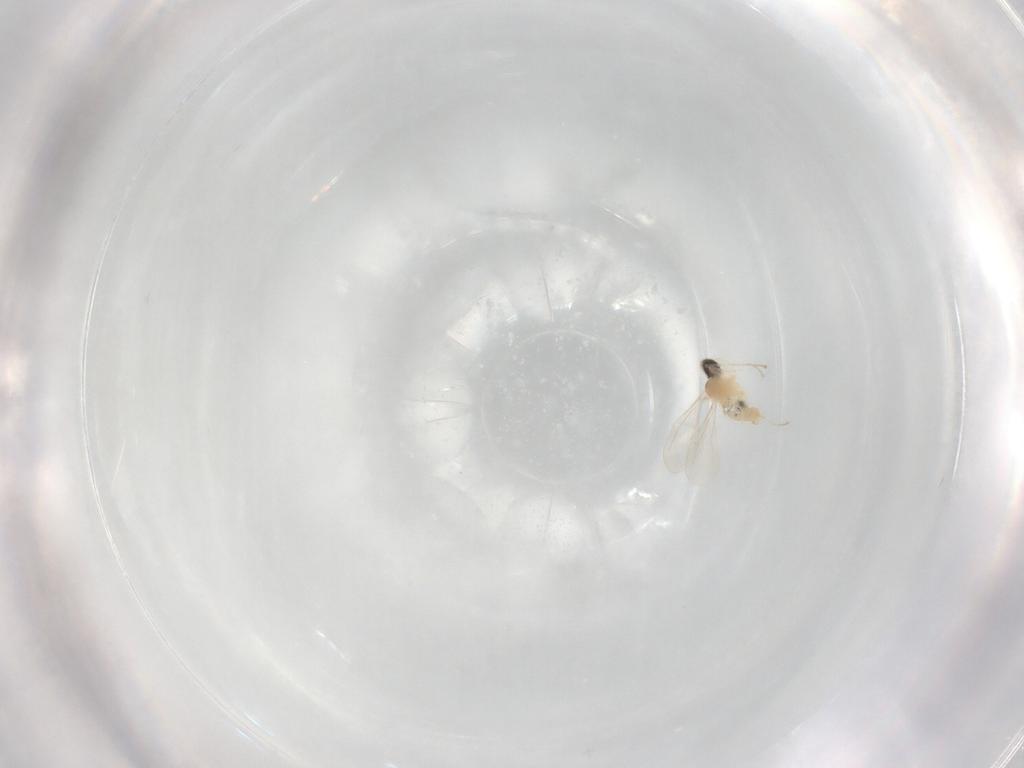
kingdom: Animalia
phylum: Arthropoda
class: Insecta
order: Diptera
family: Cecidomyiidae
